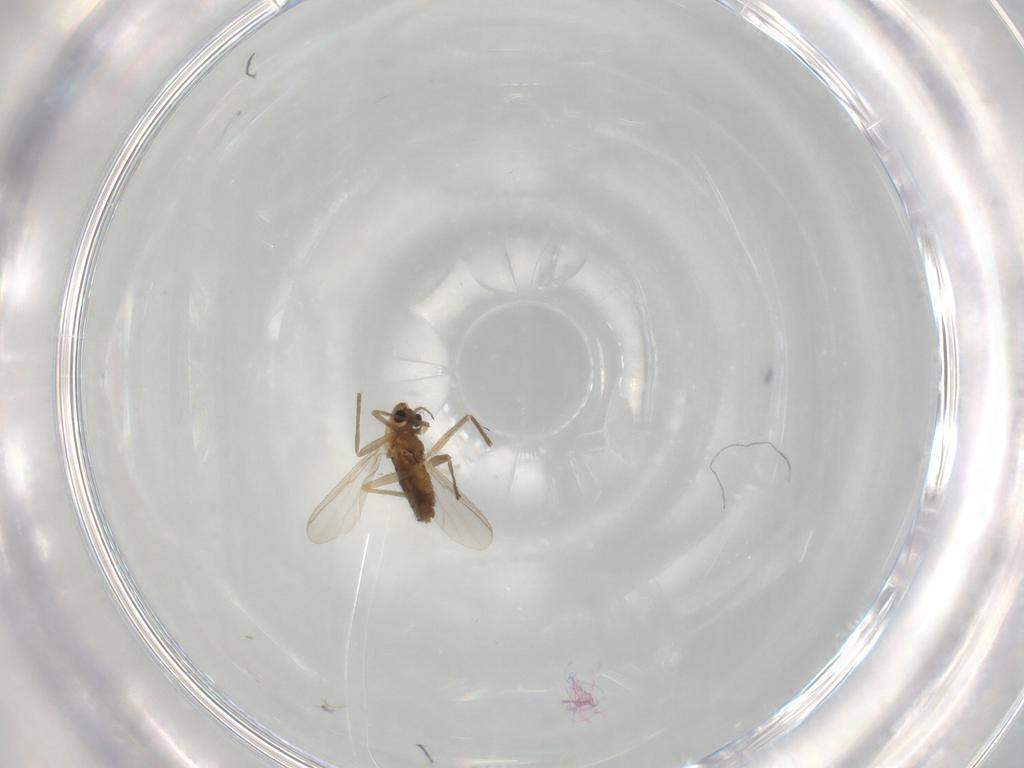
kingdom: Animalia
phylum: Arthropoda
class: Insecta
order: Diptera
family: Chironomidae
